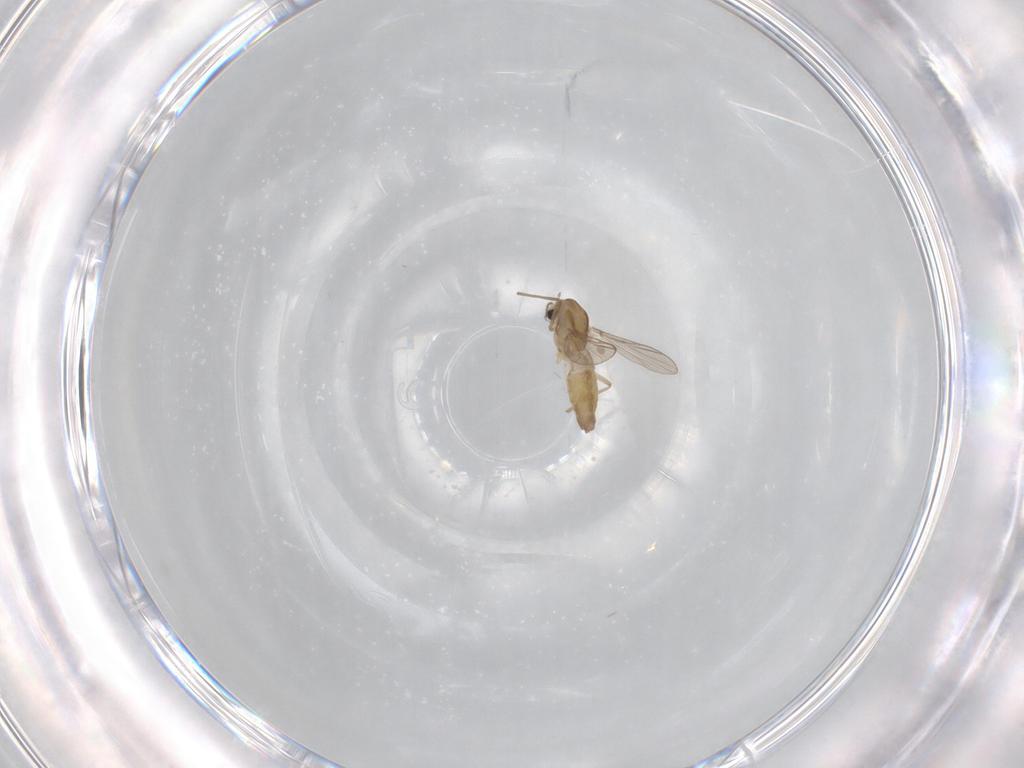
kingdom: Animalia
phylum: Arthropoda
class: Insecta
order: Diptera
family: Chironomidae
